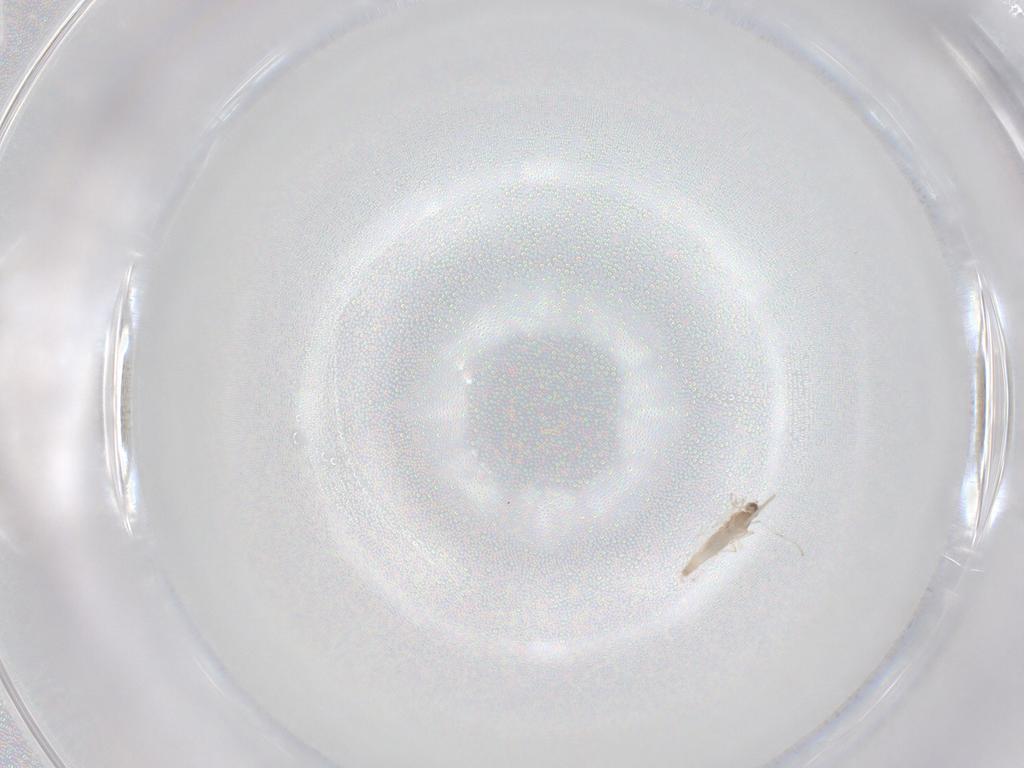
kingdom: Animalia
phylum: Arthropoda
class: Insecta
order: Diptera
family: Cecidomyiidae
